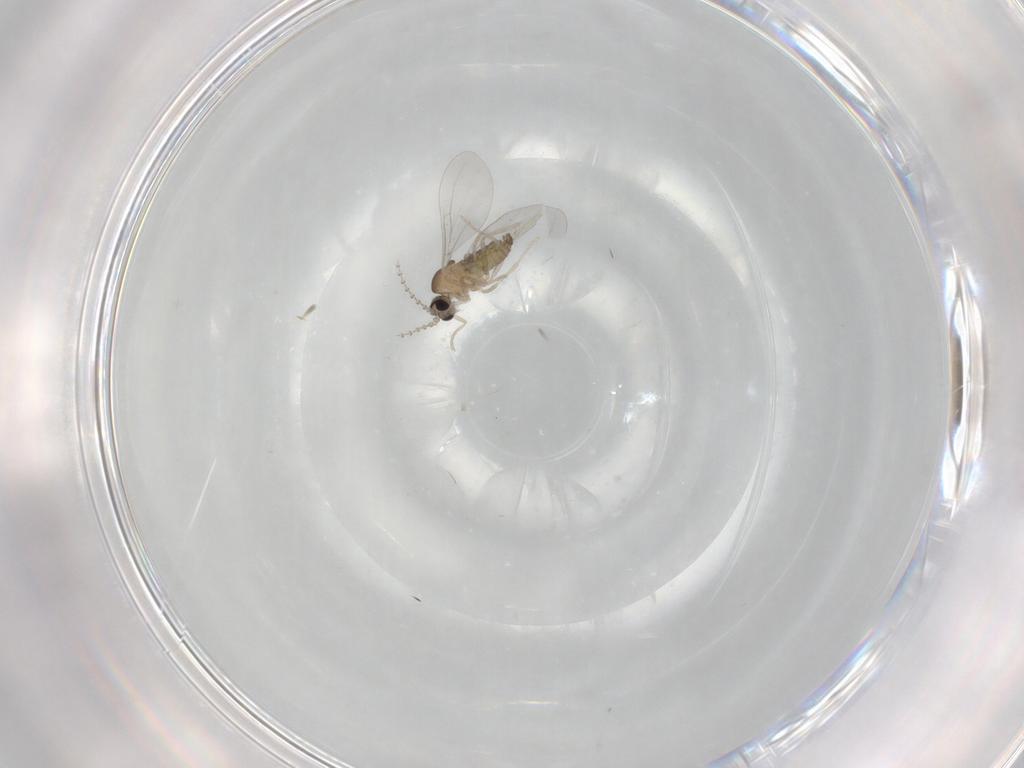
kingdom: Animalia
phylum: Arthropoda
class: Insecta
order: Diptera
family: Cecidomyiidae
